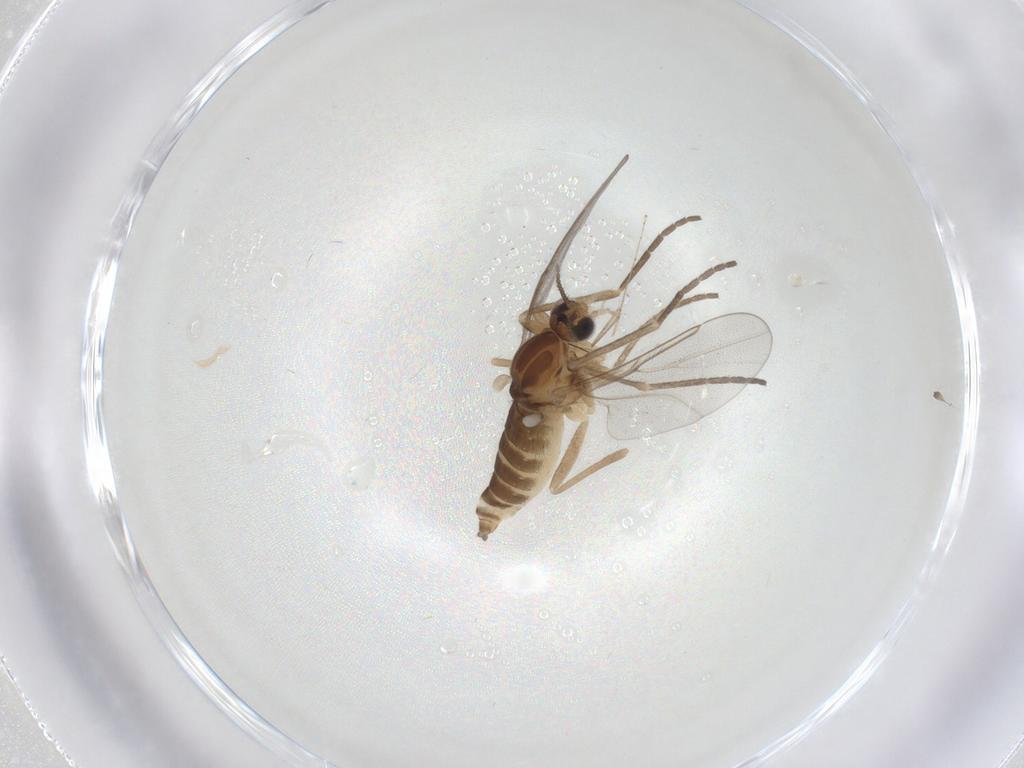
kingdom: Animalia
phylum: Arthropoda
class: Insecta
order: Diptera
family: Cecidomyiidae
